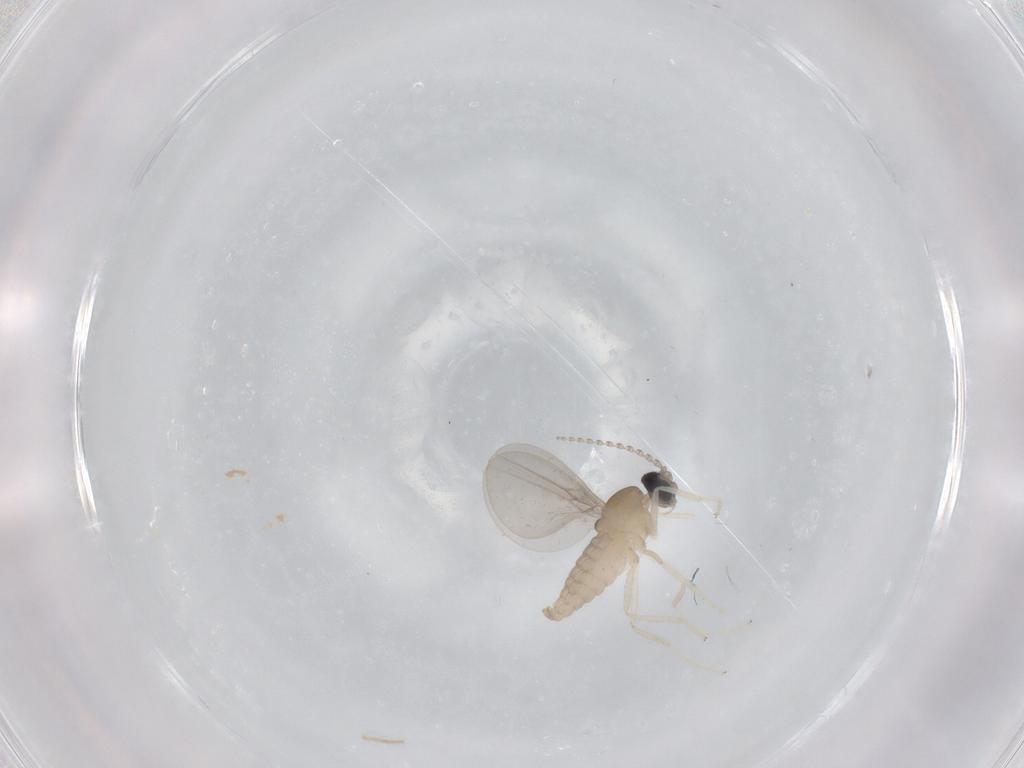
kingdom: Animalia
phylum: Arthropoda
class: Insecta
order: Diptera
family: Cecidomyiidae
